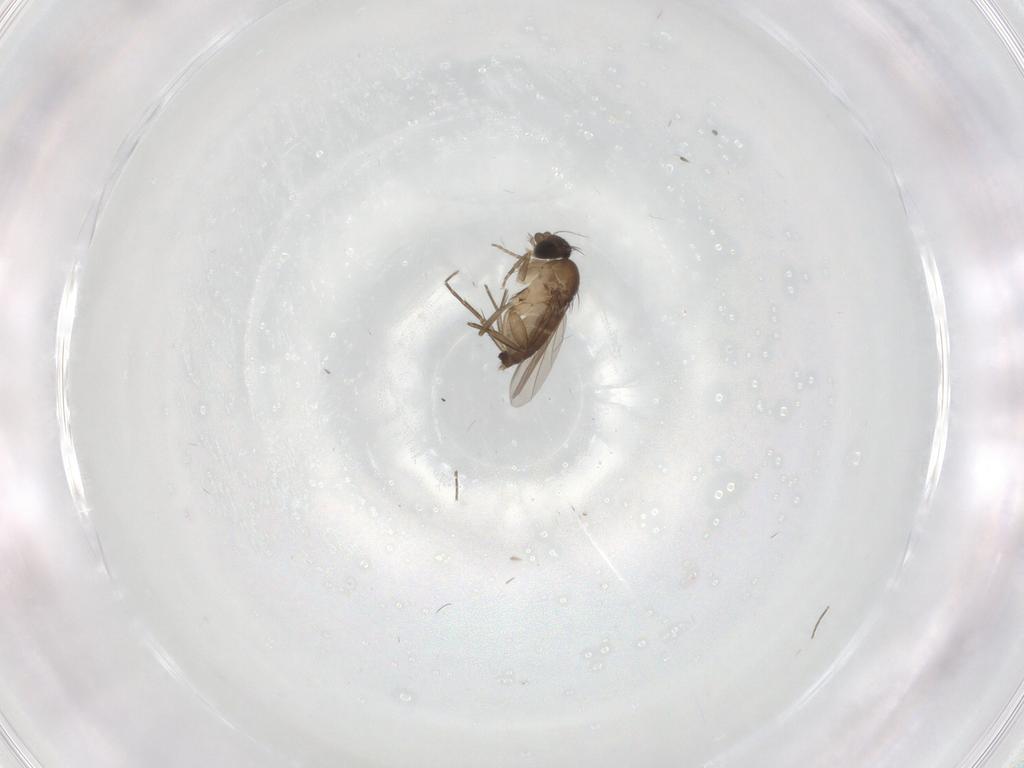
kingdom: Animalia
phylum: Arthropoda
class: Insecta
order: Diptera
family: Phoridae
